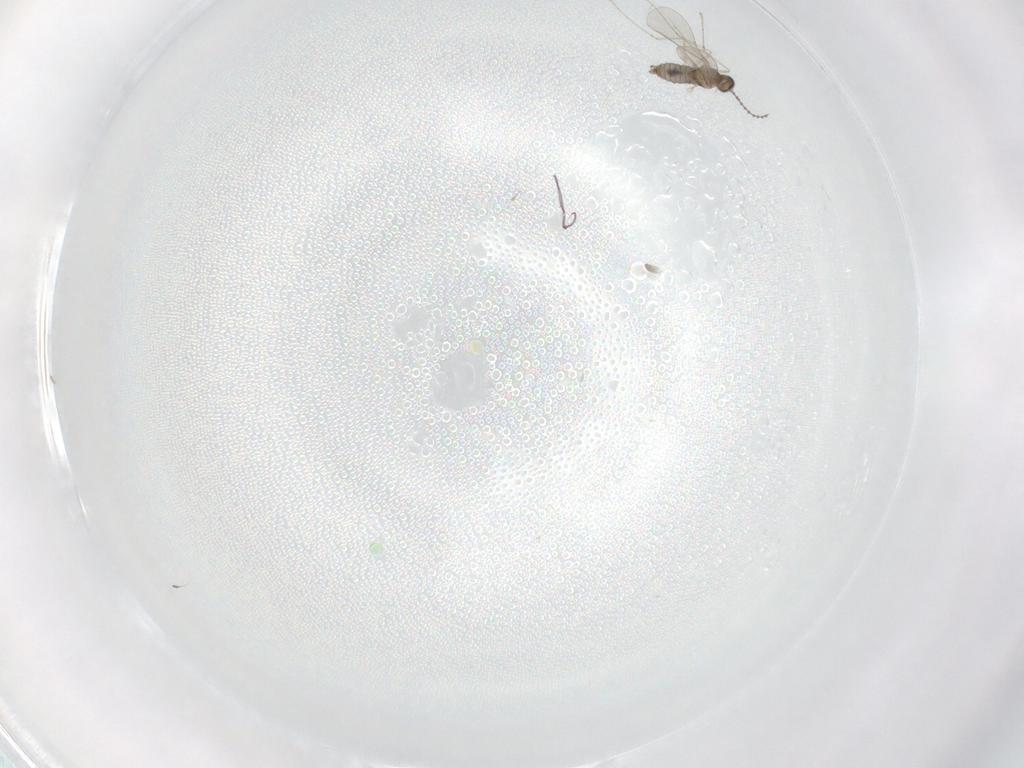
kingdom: Animalia
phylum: Arthropoda
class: Insecta
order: Diptera
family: Cecidomyiidae
